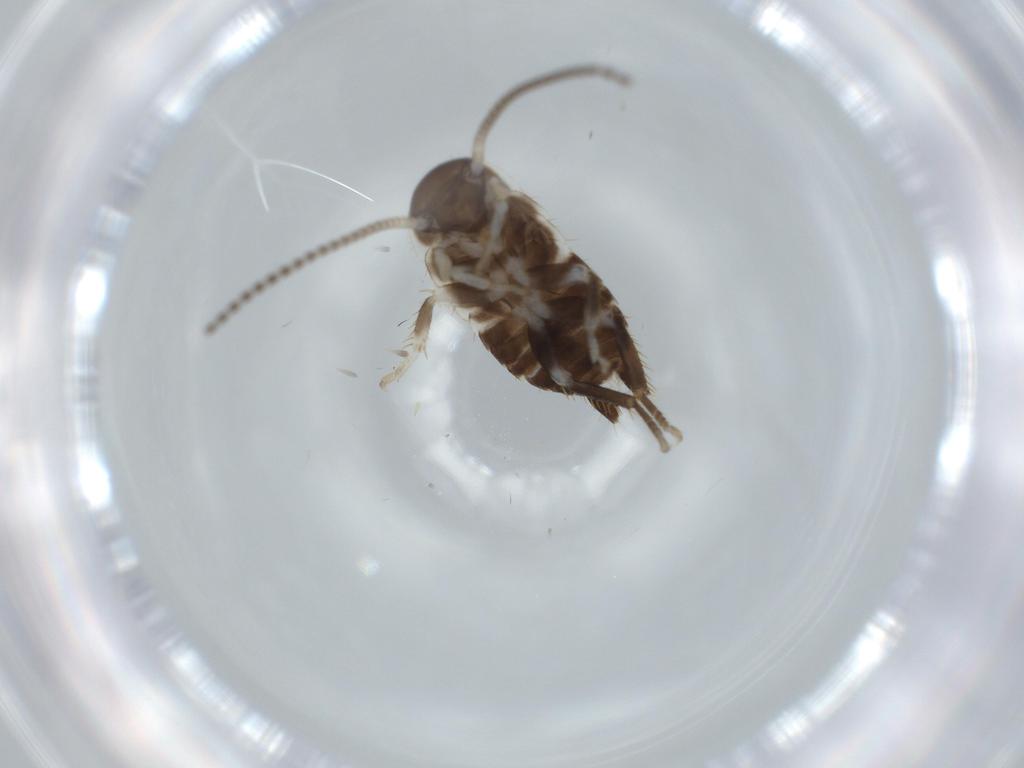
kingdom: Animalia
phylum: Arthropoda
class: Insecta
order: Blattodea
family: Ectobiidae
